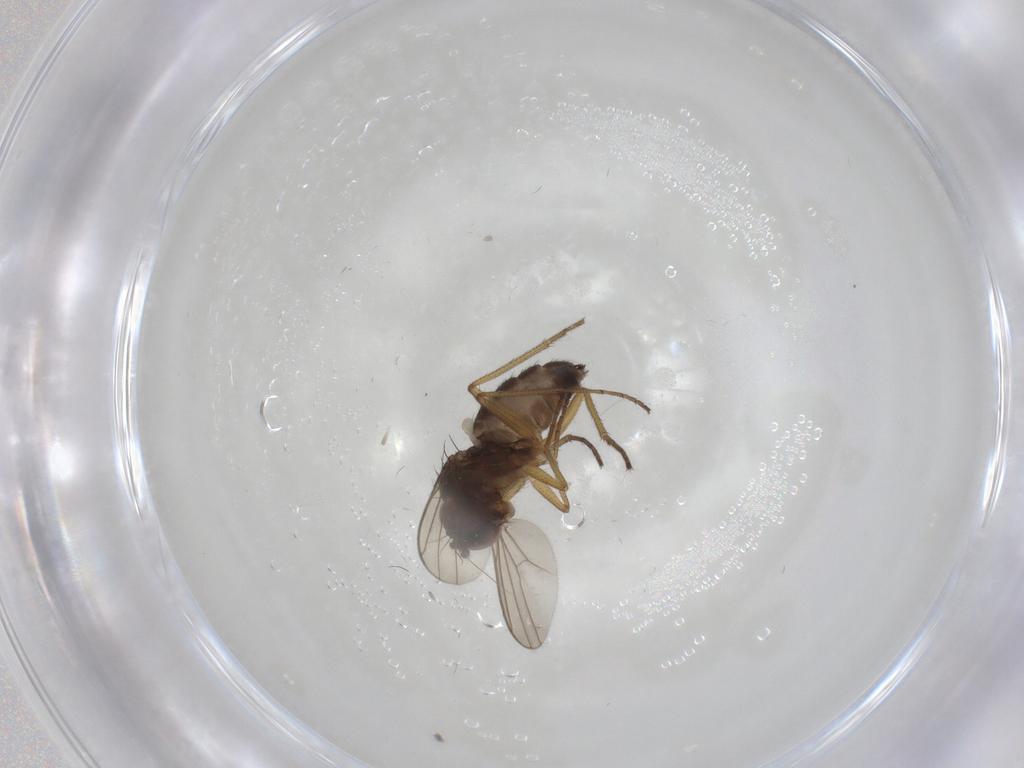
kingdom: Animalia
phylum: Arthropoda
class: Insecta
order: Diptera
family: Dolichopodidae
